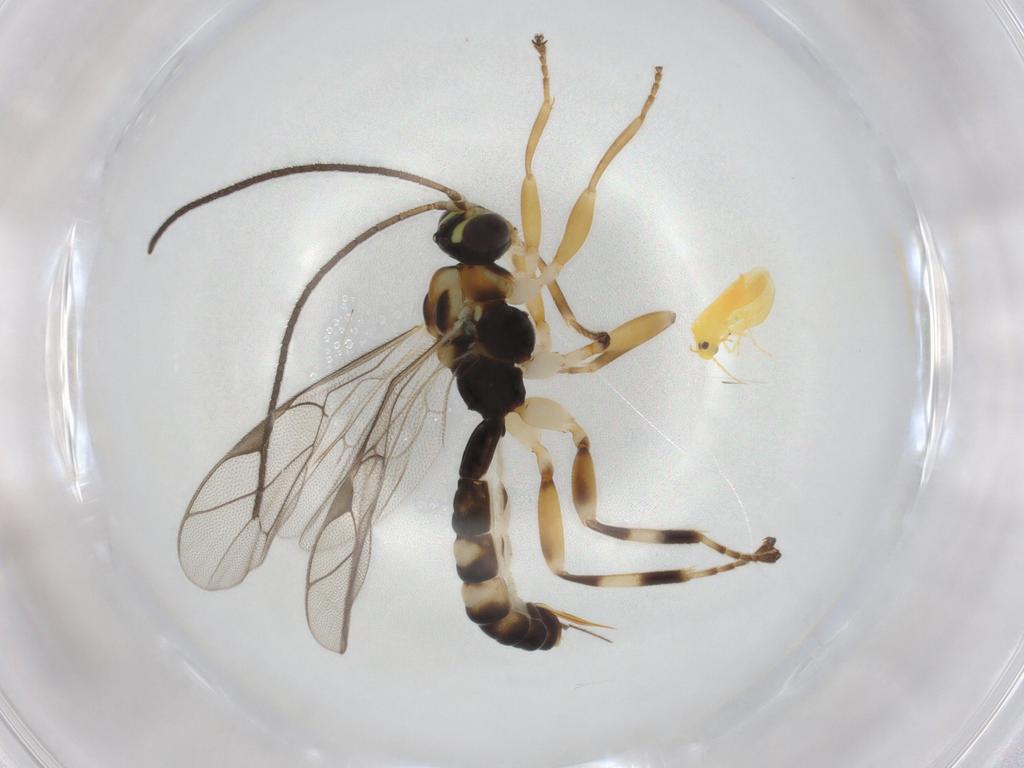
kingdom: Animalia
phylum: Arthropoda
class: Insecta
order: Hymenoptera
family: Ichneumonidae
